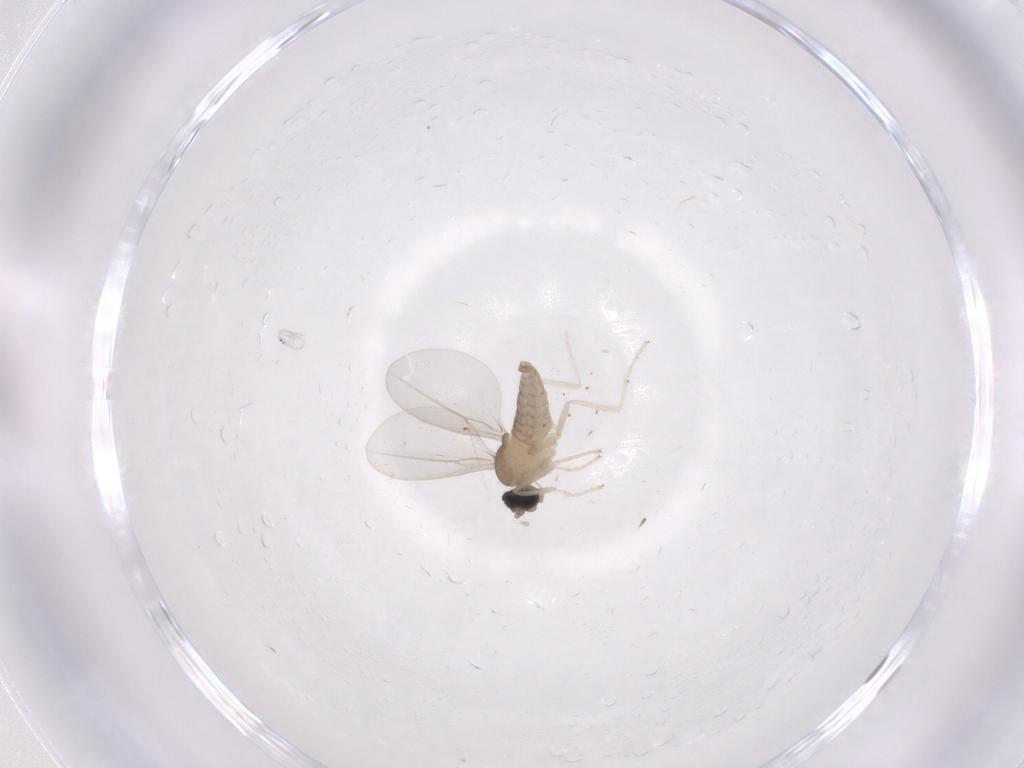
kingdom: Animalia
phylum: Arthropoda
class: Insecta
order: Diptera
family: Cecidomyiidae
